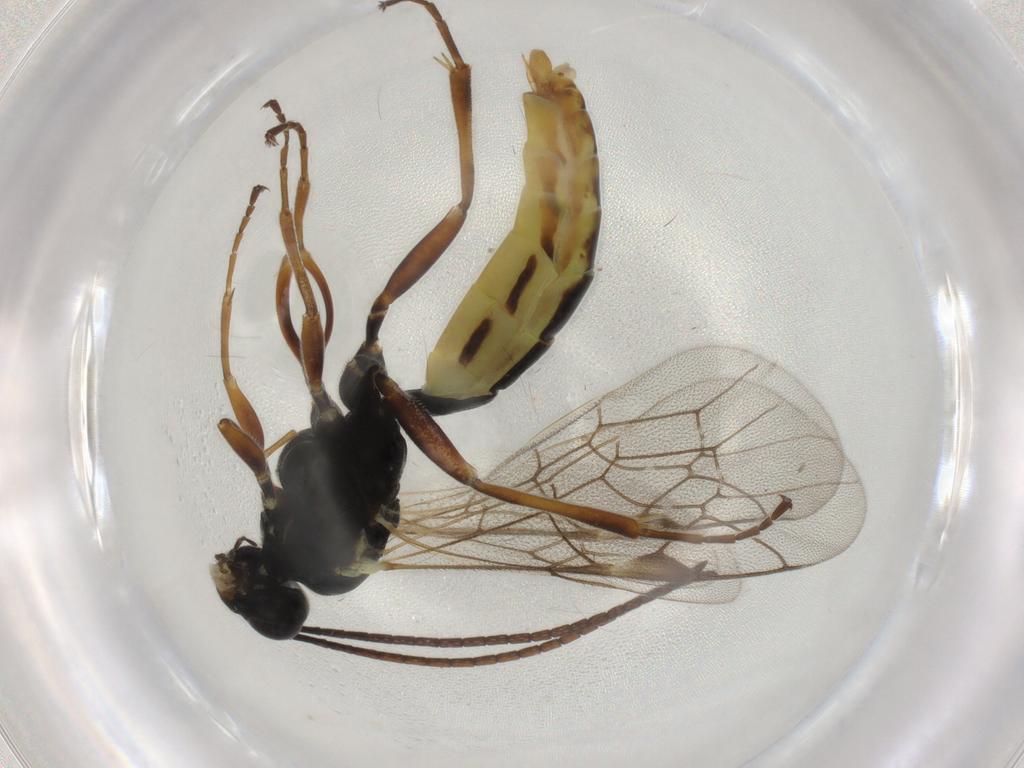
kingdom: Animalia
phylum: Arthropoda
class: Insecta
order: Hymenoptera
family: Ichneumonidae
